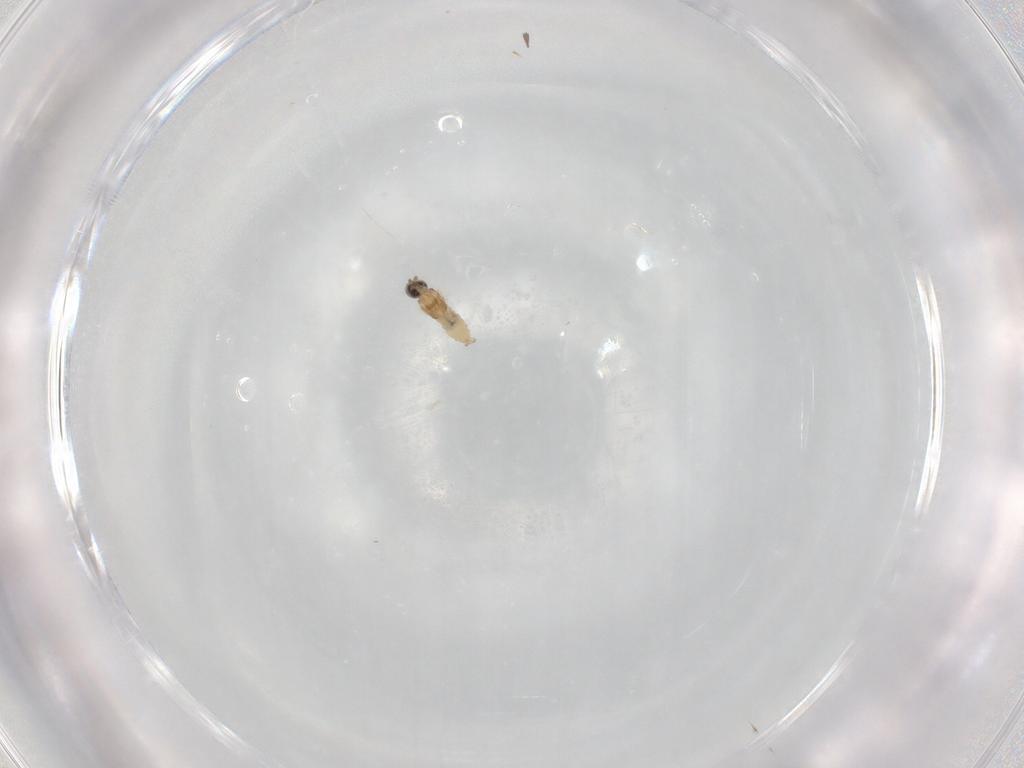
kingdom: Animalia
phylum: Arthropoda
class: Insecta
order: Diptera
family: Cecidomyiidae
